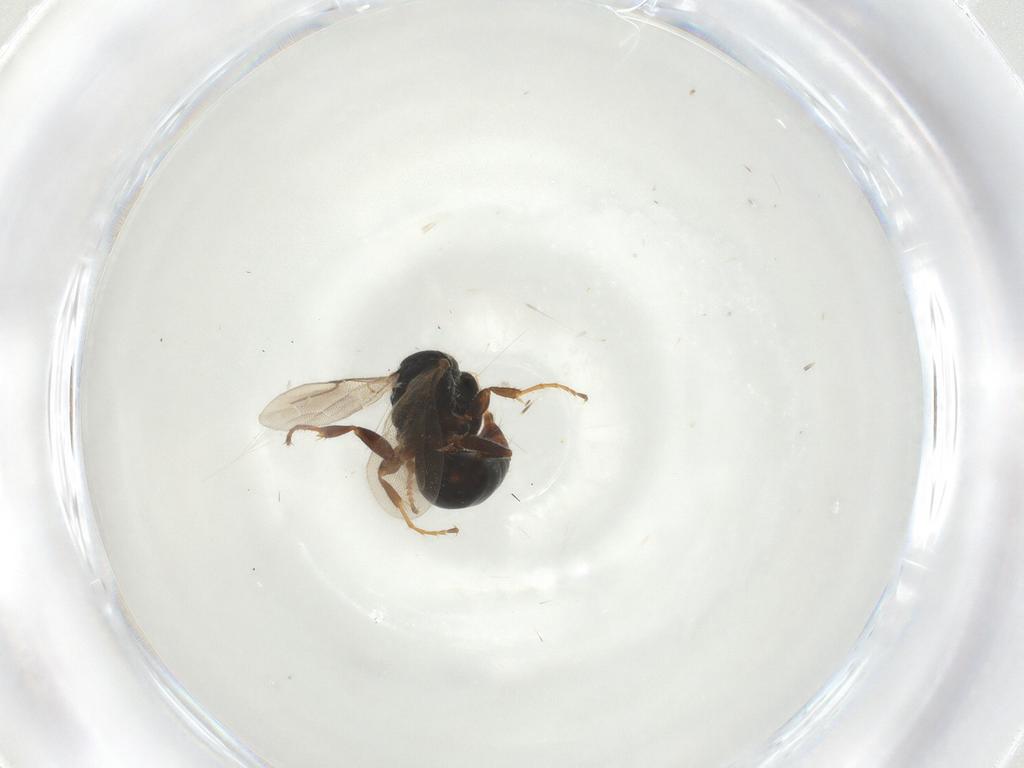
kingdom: Animalia
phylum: Arthropoda
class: Insecta
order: Hymenoptera
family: Bethylidae
